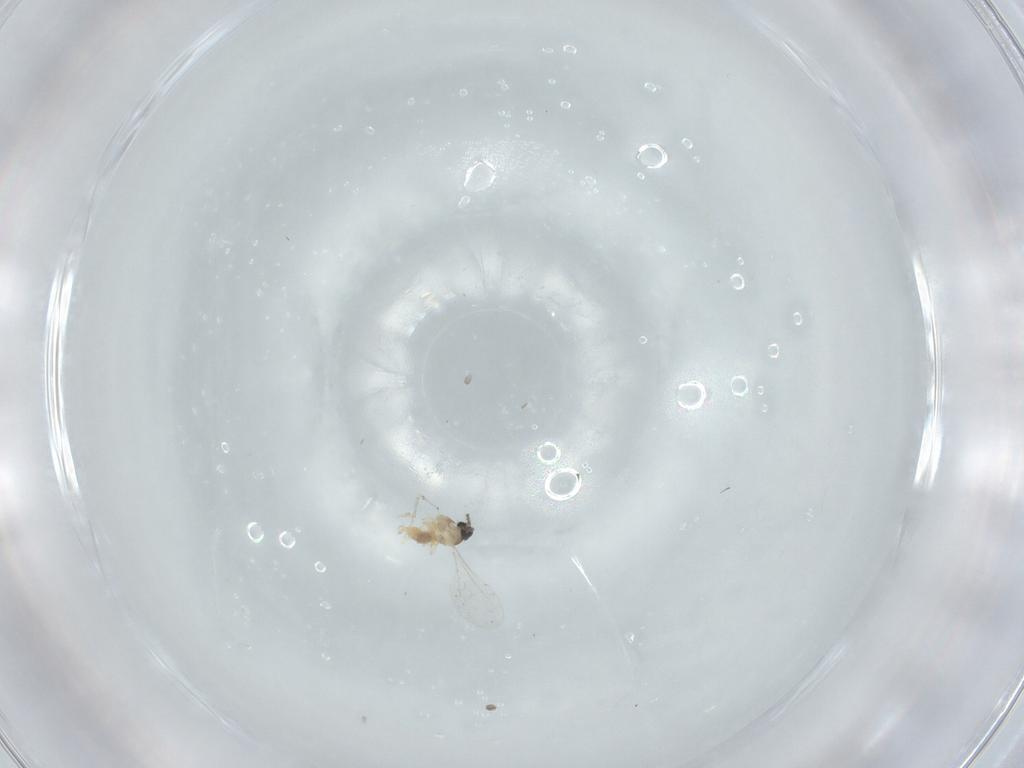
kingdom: Animalia
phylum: Arthropoda
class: Insecta
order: Diptera
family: Cecidomyiidae
